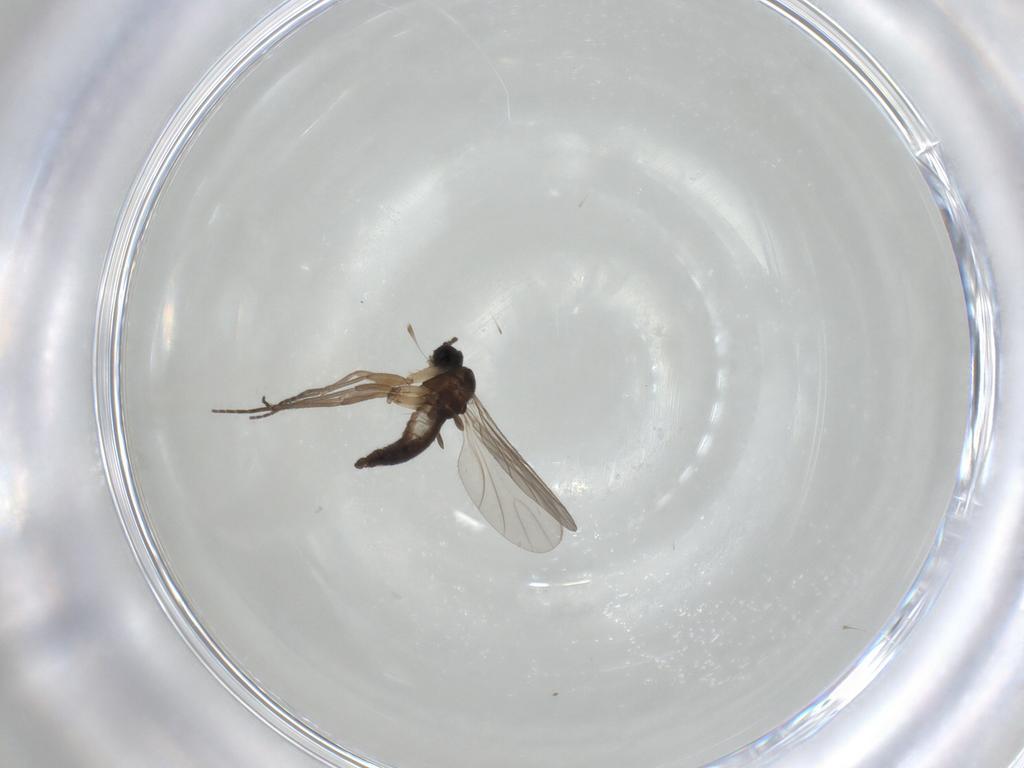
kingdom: Animalia
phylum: Arthropoda
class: Insecta
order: Diptera
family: Sciaridae
